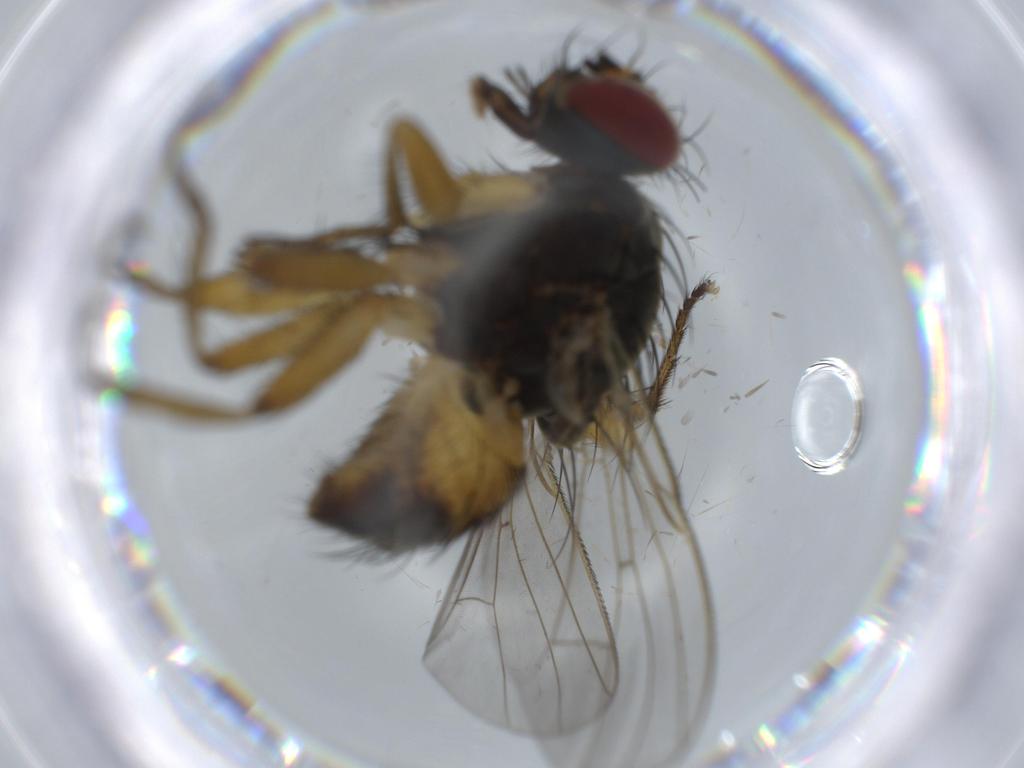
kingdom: Animalia
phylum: Arthropoda
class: Insecta
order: Diptera
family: Muscidae
